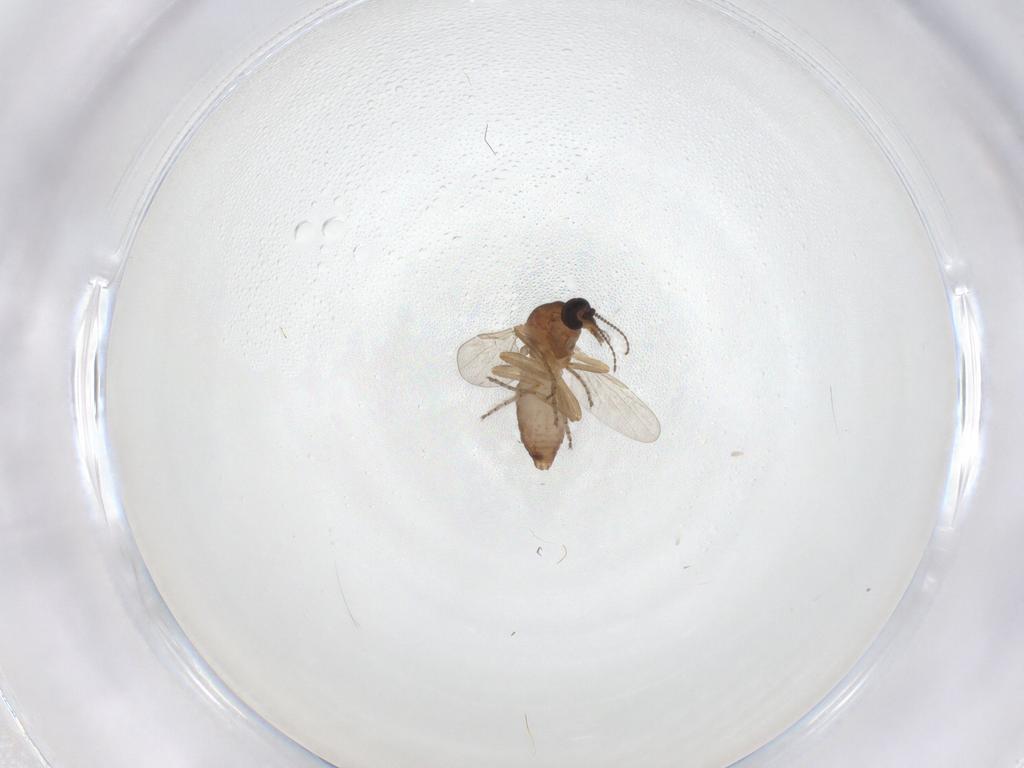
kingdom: Animalia
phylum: Arthropoda
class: Insecta
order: Diptera
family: Ceratopogonidae
